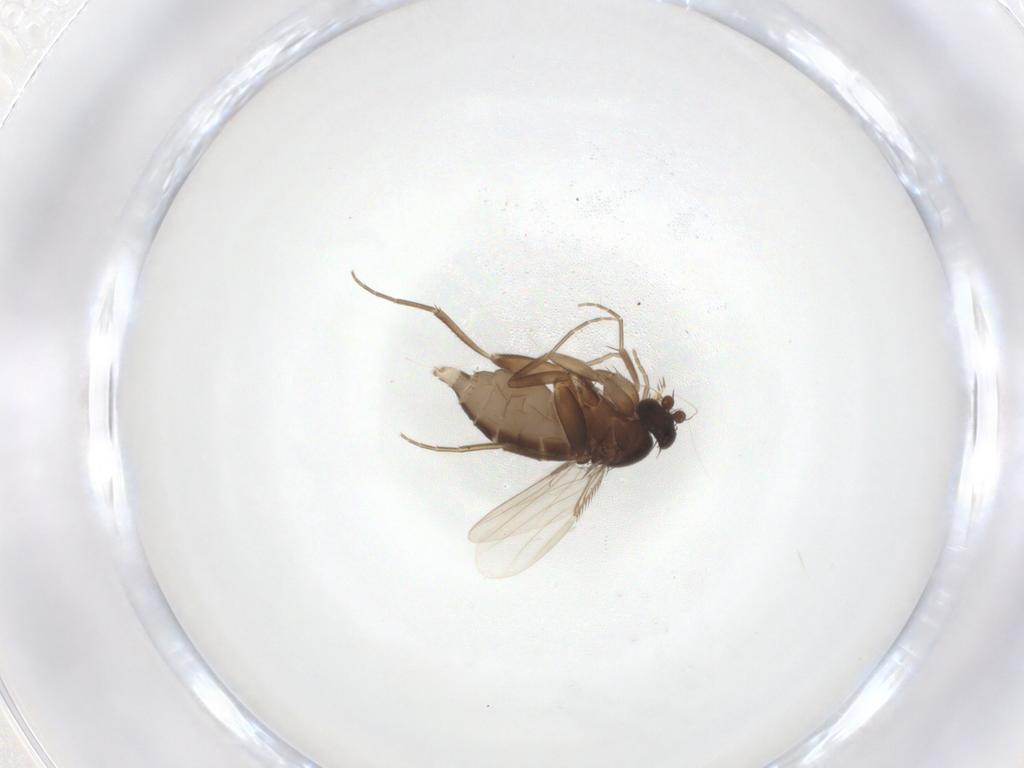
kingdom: Animalia
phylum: Arthropoda
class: Insecta
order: Diptera
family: Phoridae
